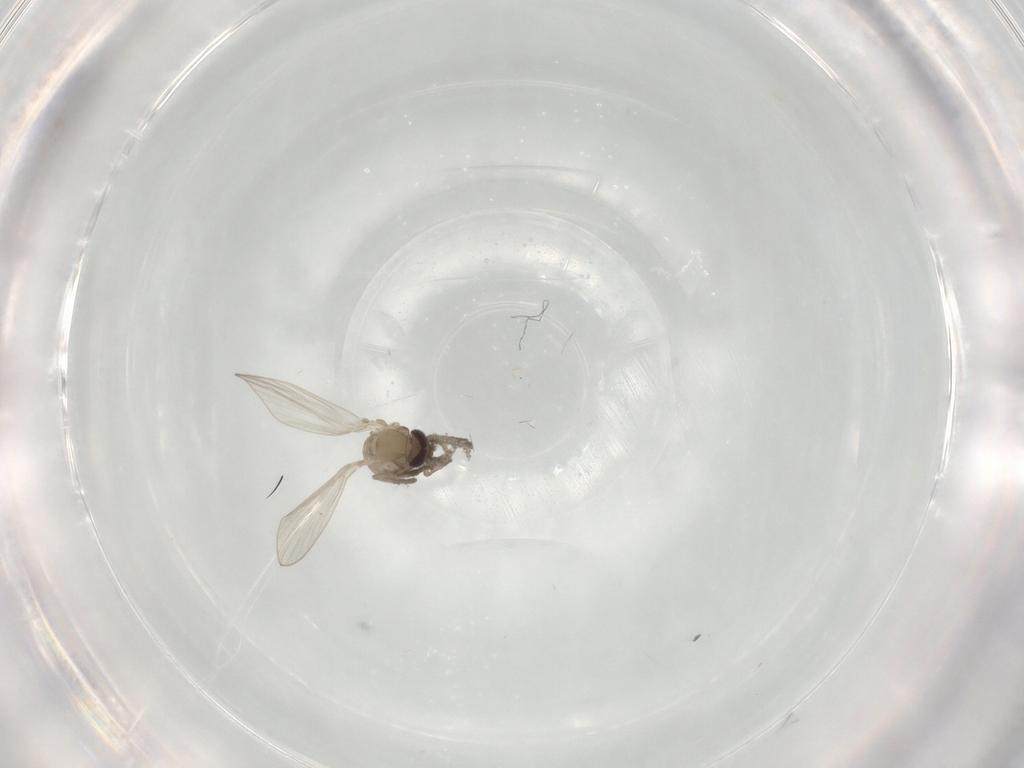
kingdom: Animalia
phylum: Arthropoda
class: Insecta
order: Diptera
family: Psychodidae
